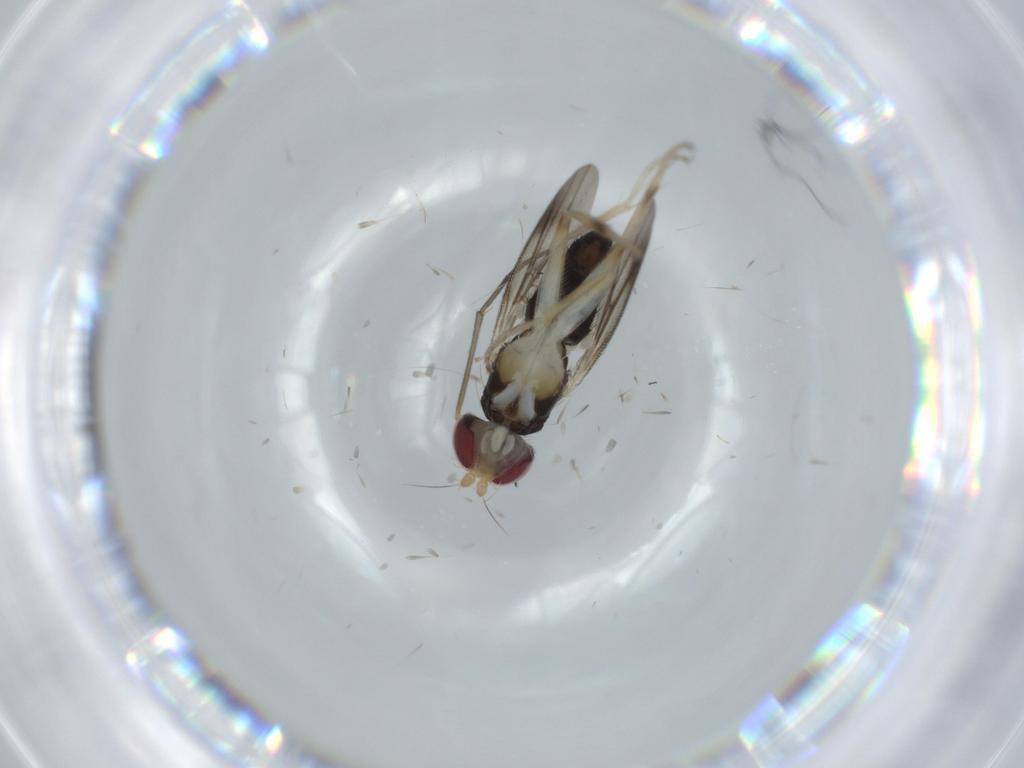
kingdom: Animalia
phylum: Arthropoda
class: Insecta
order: Diptera
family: Clusiidae
